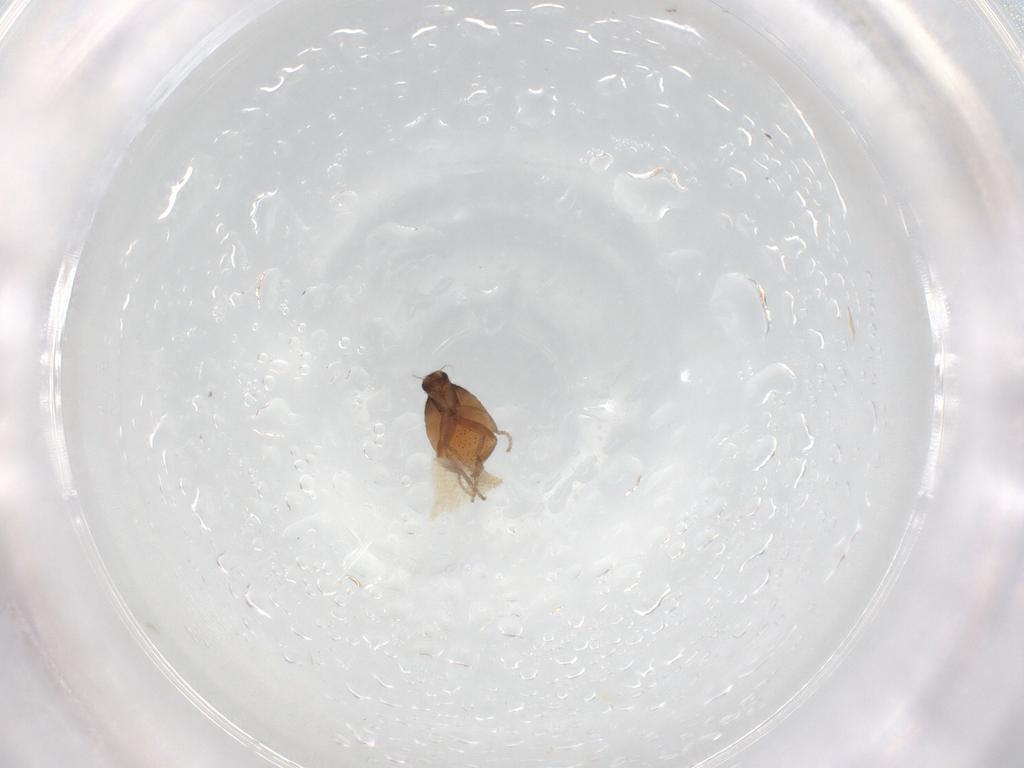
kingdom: Animalia
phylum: Arthropoda
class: Insecta
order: Diptera
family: Phoridae
